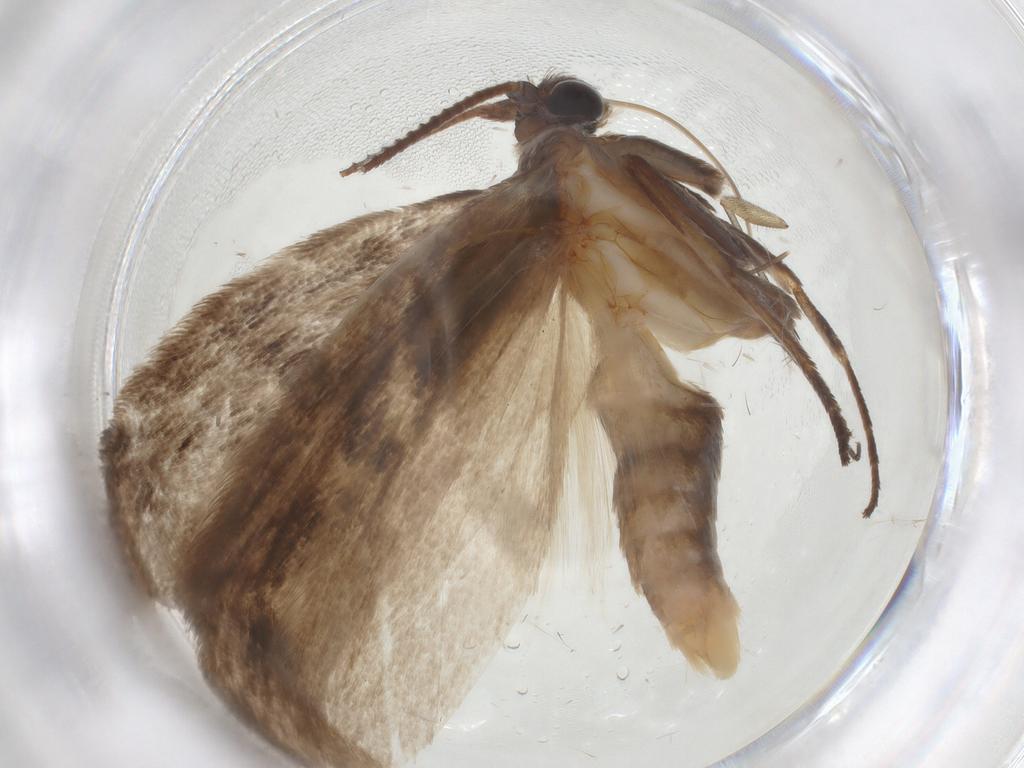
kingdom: Animalia
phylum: Arthropoda
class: Insecta
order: Lepidoptera
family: Roeslerstammiidae
